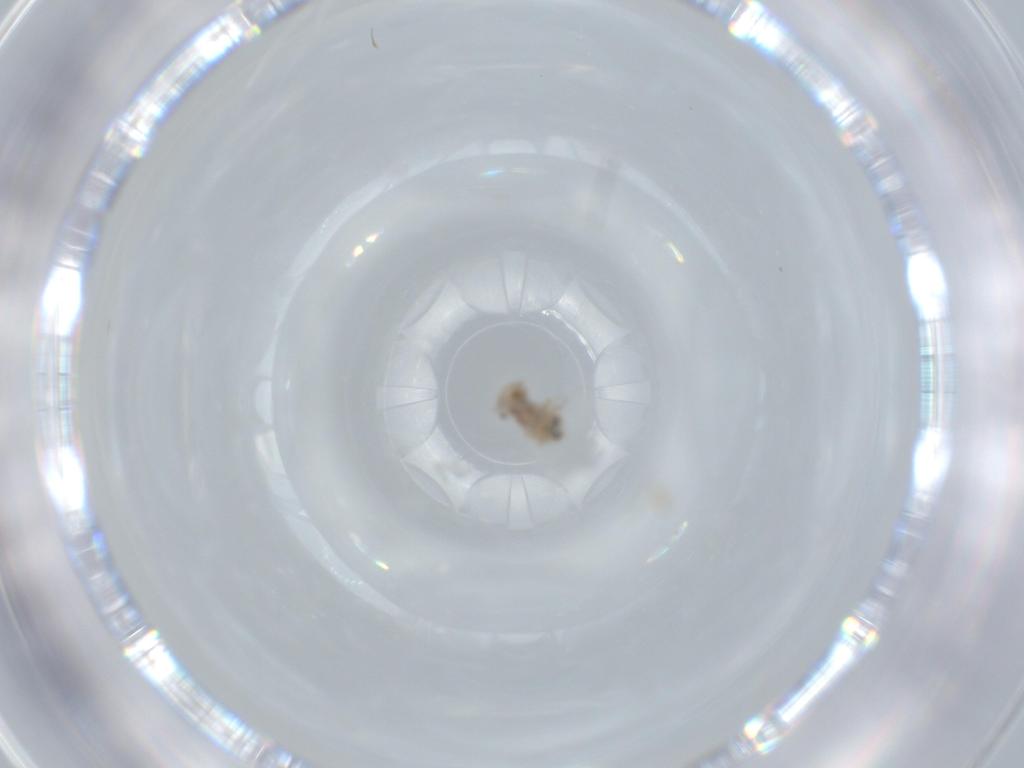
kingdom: Animalia
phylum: Arthropoda
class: Insecta
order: Psocodea
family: Ectopsocidae
